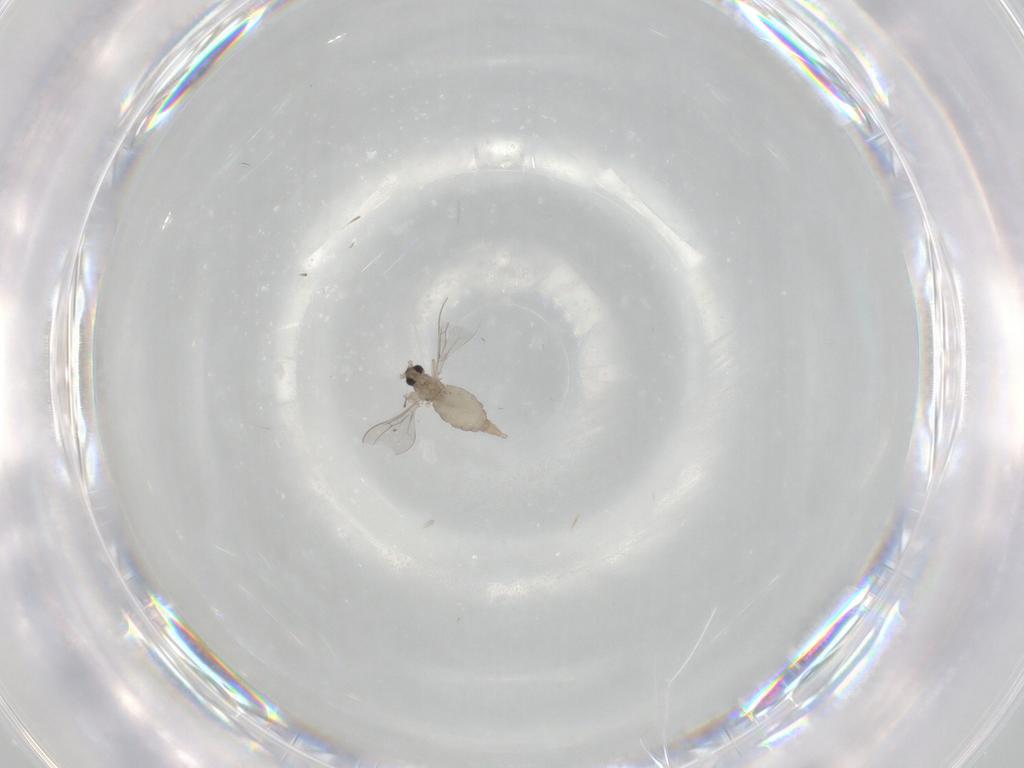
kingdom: Animalia
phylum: Arthropoda
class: Insecta
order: Diptera
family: Cecidomyiidae
